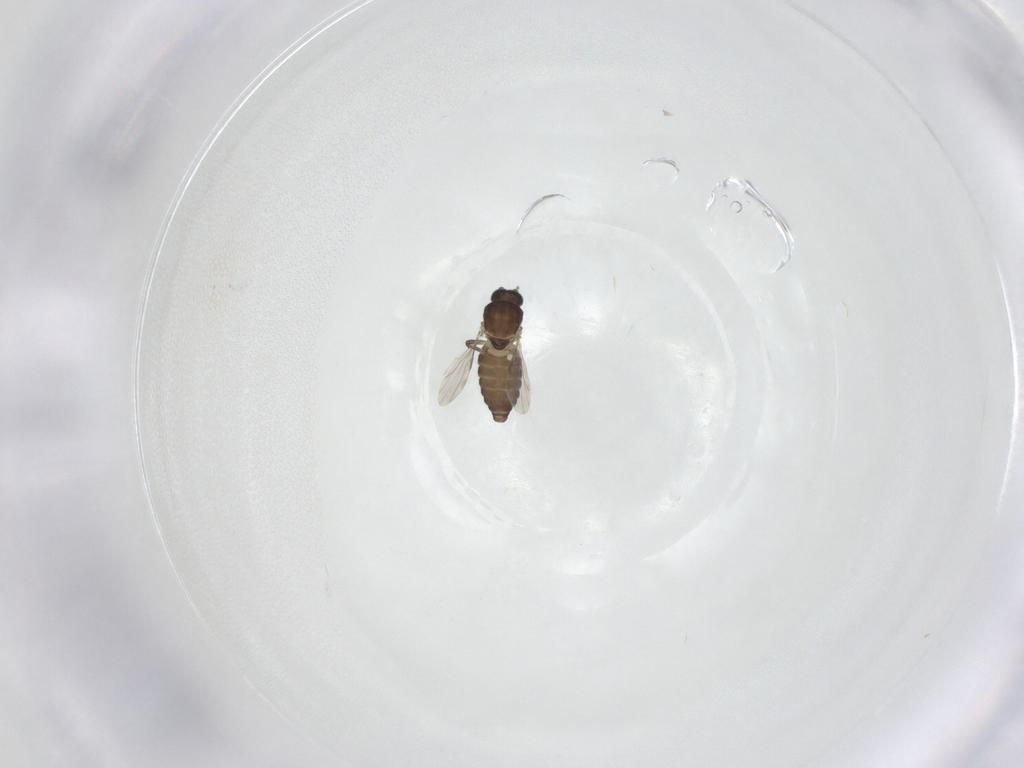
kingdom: Animalia
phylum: Arthropoda
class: Insecta
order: Diptera
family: Ceratopogonidae
